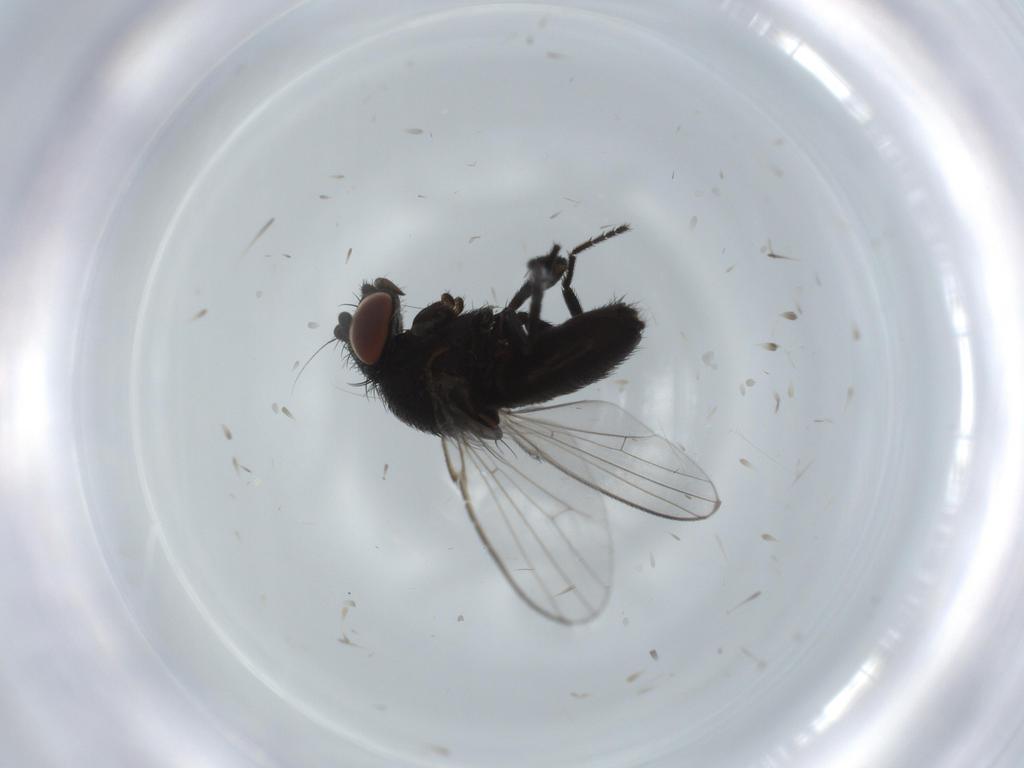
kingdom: Animalia
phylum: Arthropoda
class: Insecta
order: Diptera
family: Milichiidae
